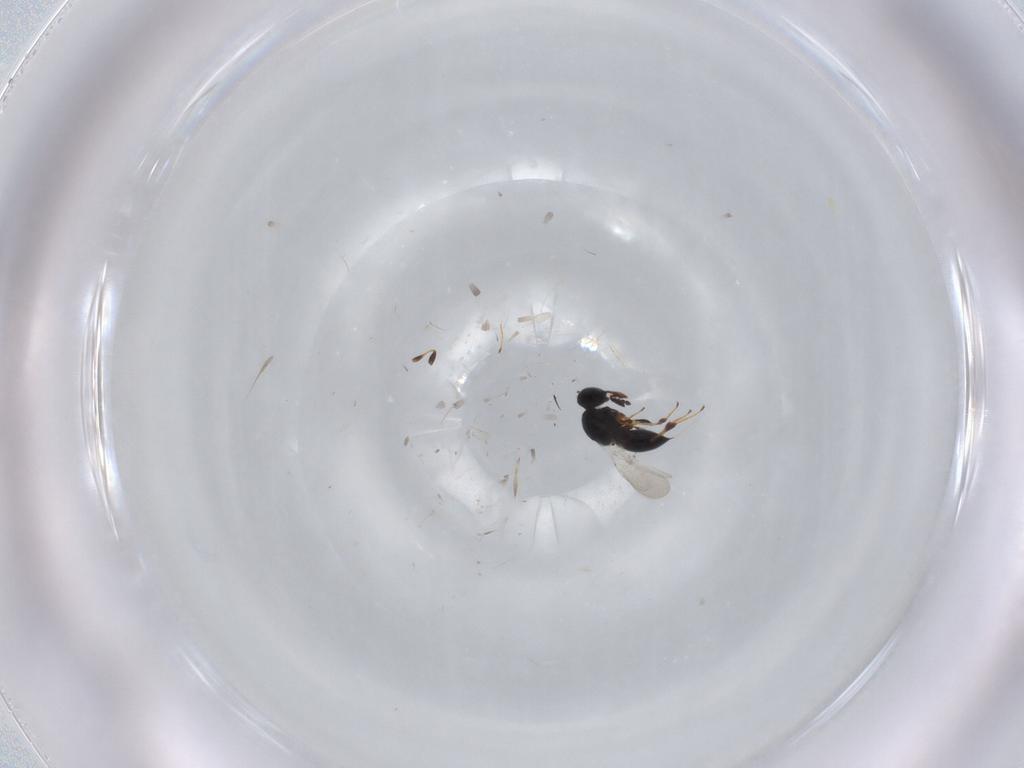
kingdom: Animalia
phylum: Arthropoda
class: Insecta
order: Hymenoptera
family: Platygastridae
